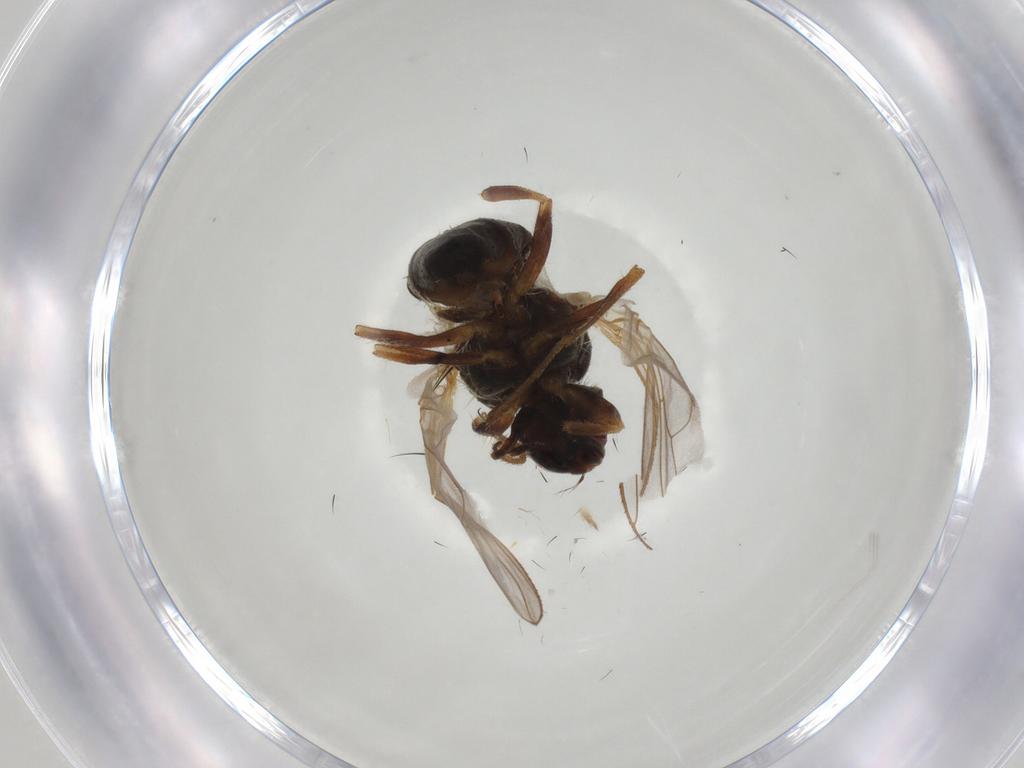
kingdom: Animalia
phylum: Arthropoda
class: Insecta
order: Diptera
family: Muscidae
